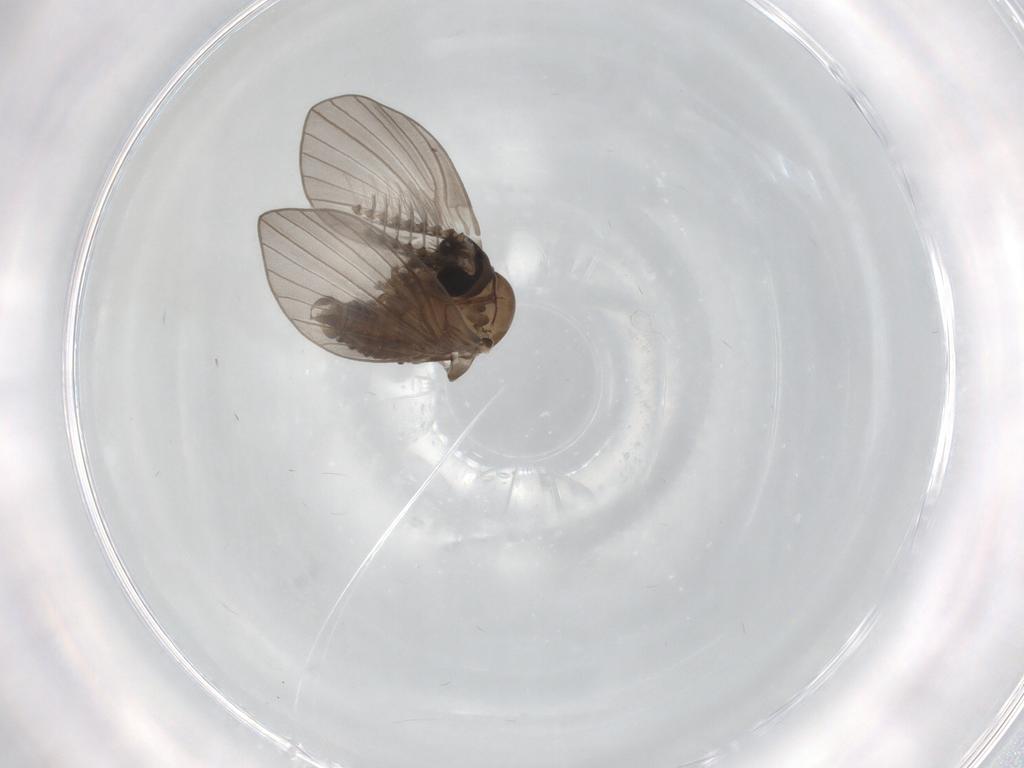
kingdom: Animalia
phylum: Arthropoda
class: Insecta
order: Diptera
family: Psychodidae
